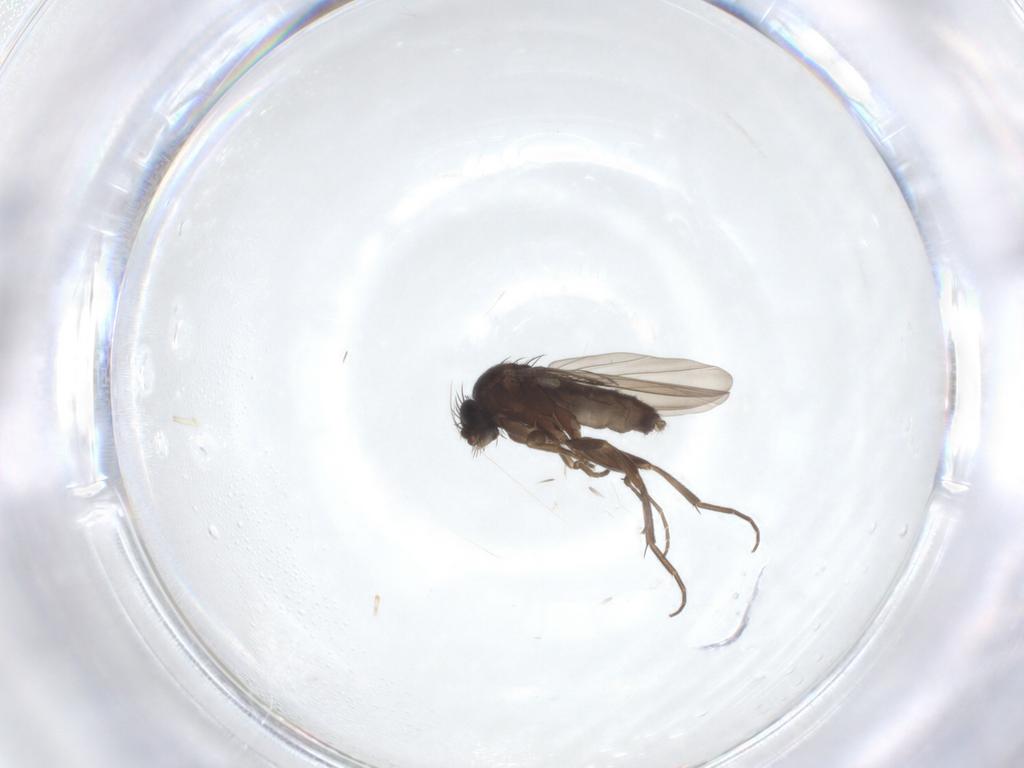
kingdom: Animalia
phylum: Arthropoda
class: Insecta
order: Diptera
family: Phoridae
